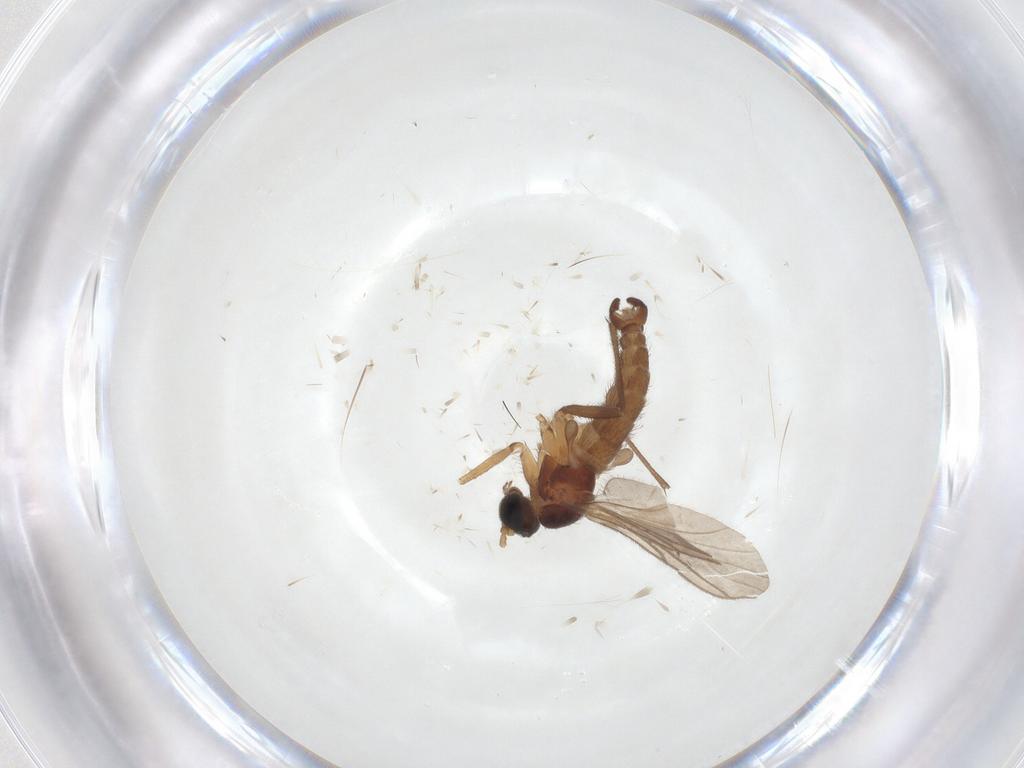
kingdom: Animalia
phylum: Arthropoda
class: Insecta
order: Diptera
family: Sciaridae
